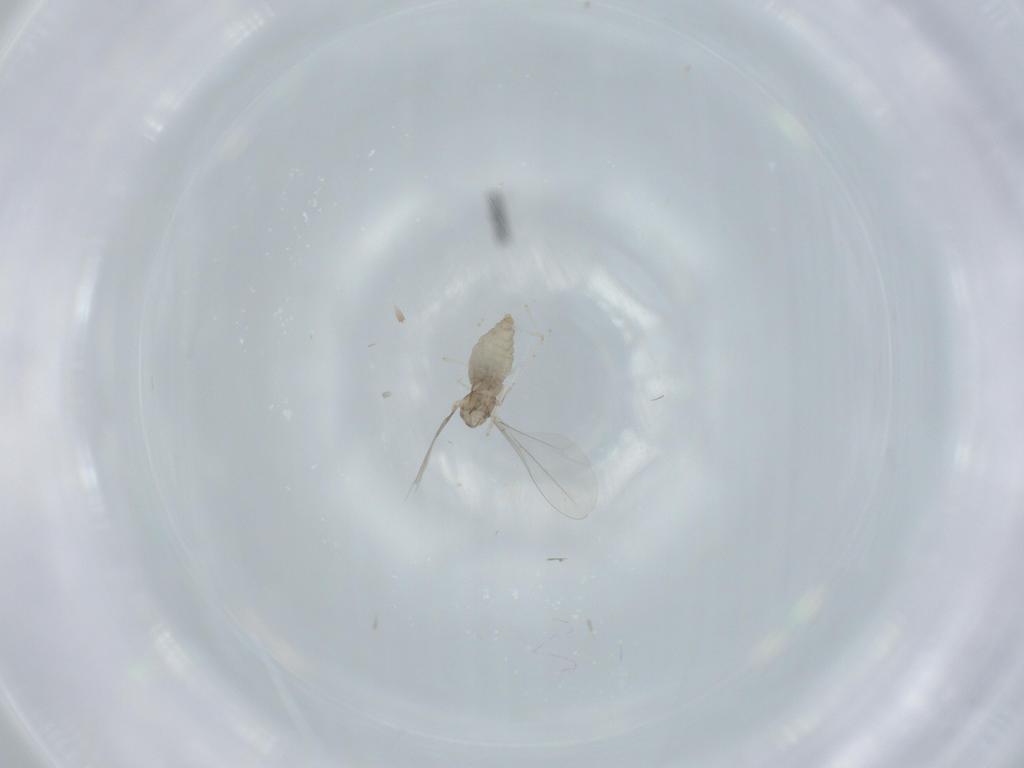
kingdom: Animalia
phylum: Arthropoda
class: Insecta
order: Diptera
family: Cecidomyiidae
